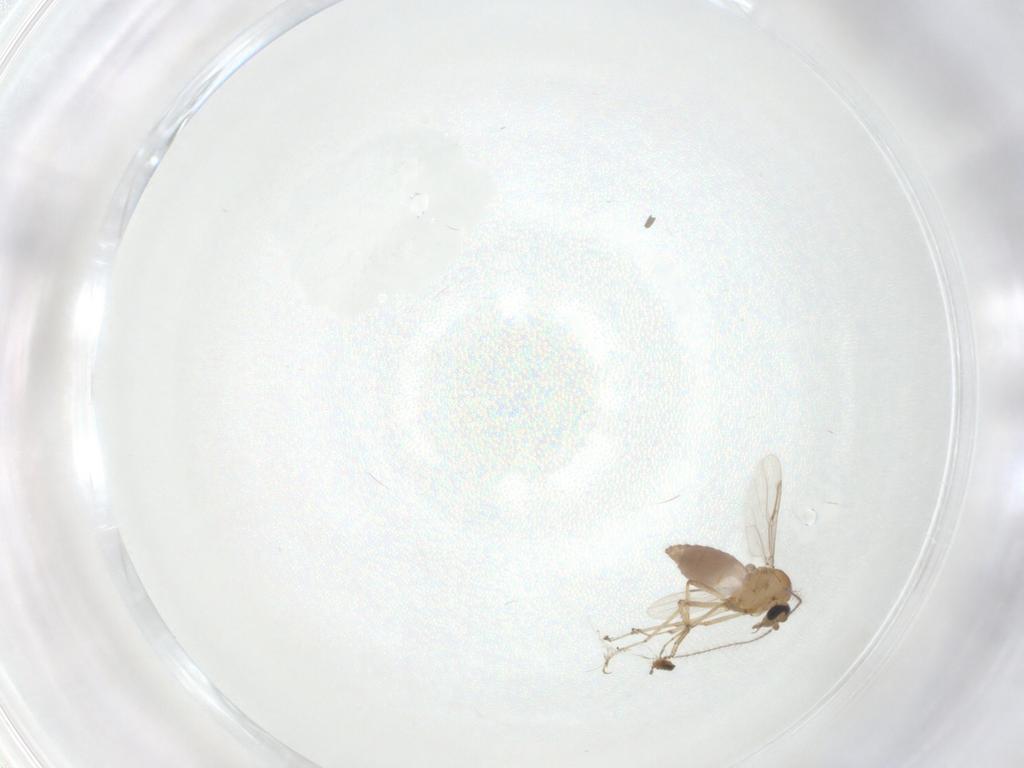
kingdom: Animalia
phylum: Arthropoda
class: Insecta
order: Diptera
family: Ceratopogonidae
